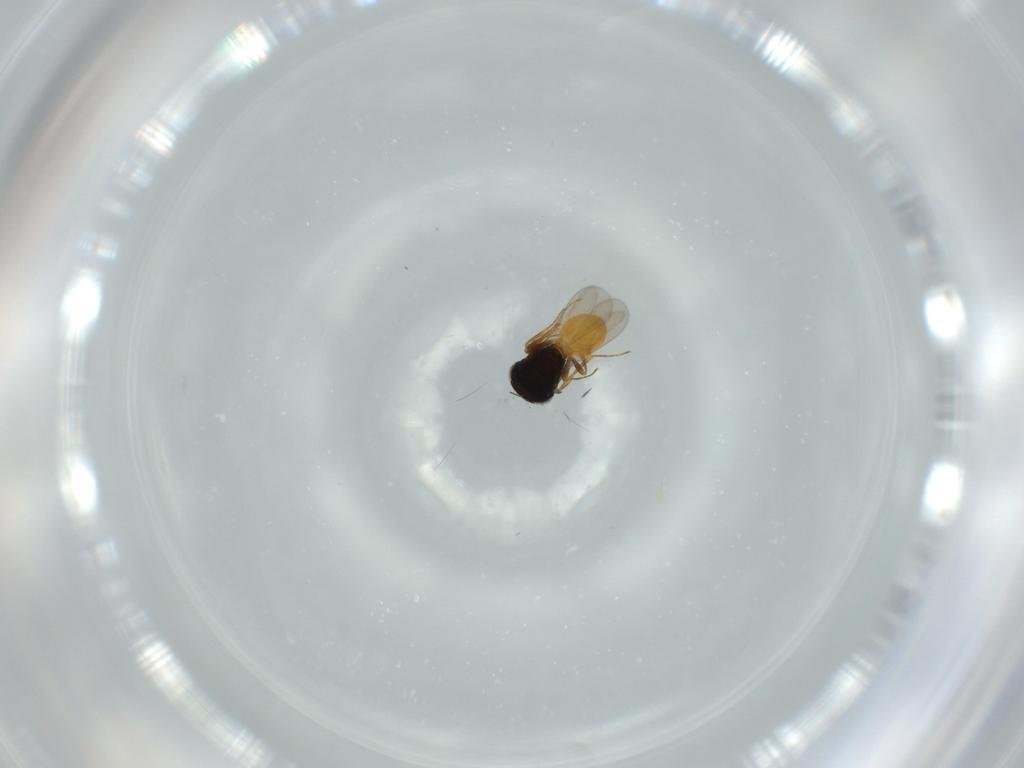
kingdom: Animalia
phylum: Arthropoda
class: Insecta
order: Hymenoptera
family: Scelionidae
